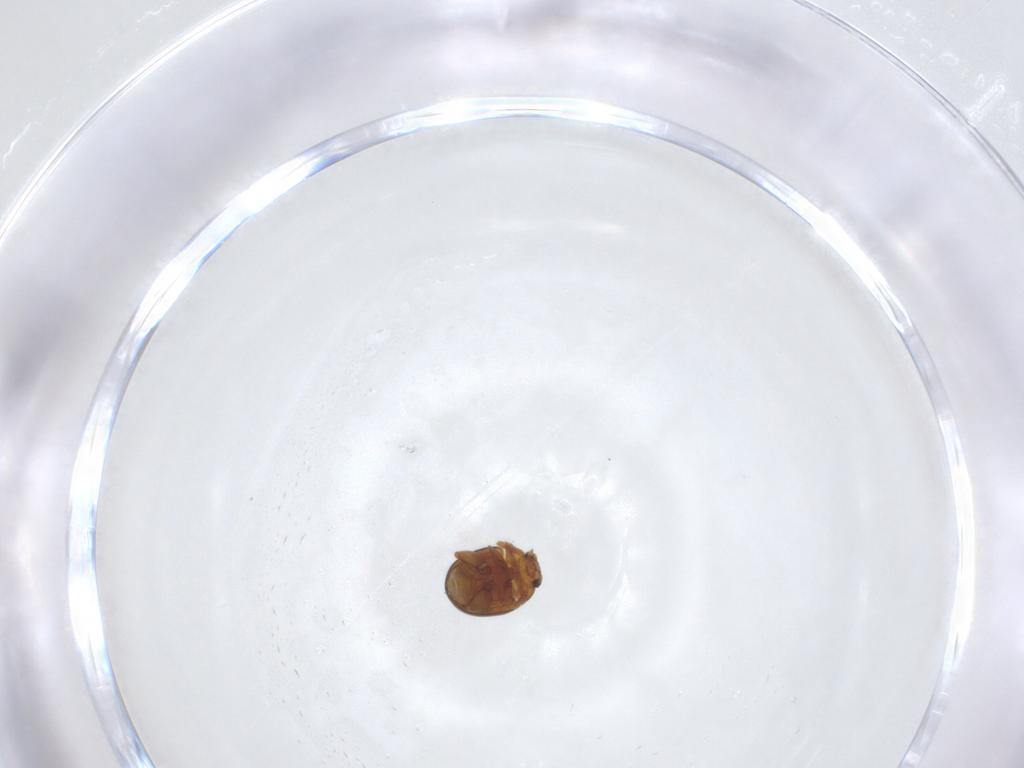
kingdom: Animalia
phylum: Arthropoda
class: Insecta
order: Coleoptera
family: Chrysomelidae
